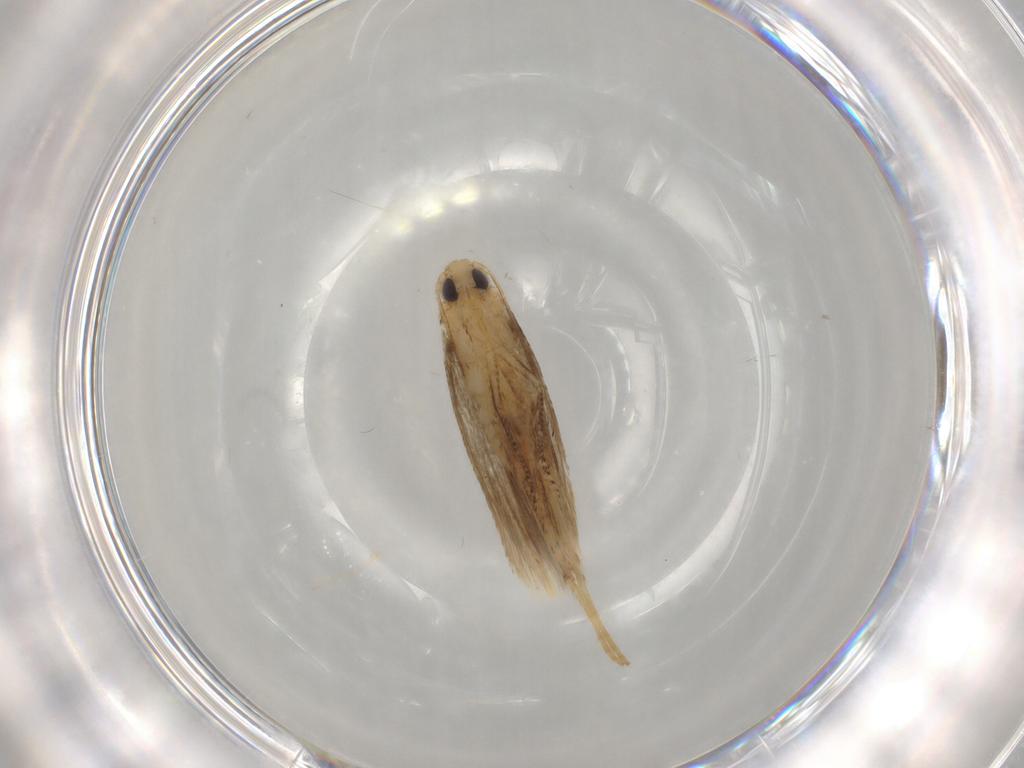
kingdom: Animalia
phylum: Arthropoda
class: Insecta
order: Lepidoptera
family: Tischeriidae
